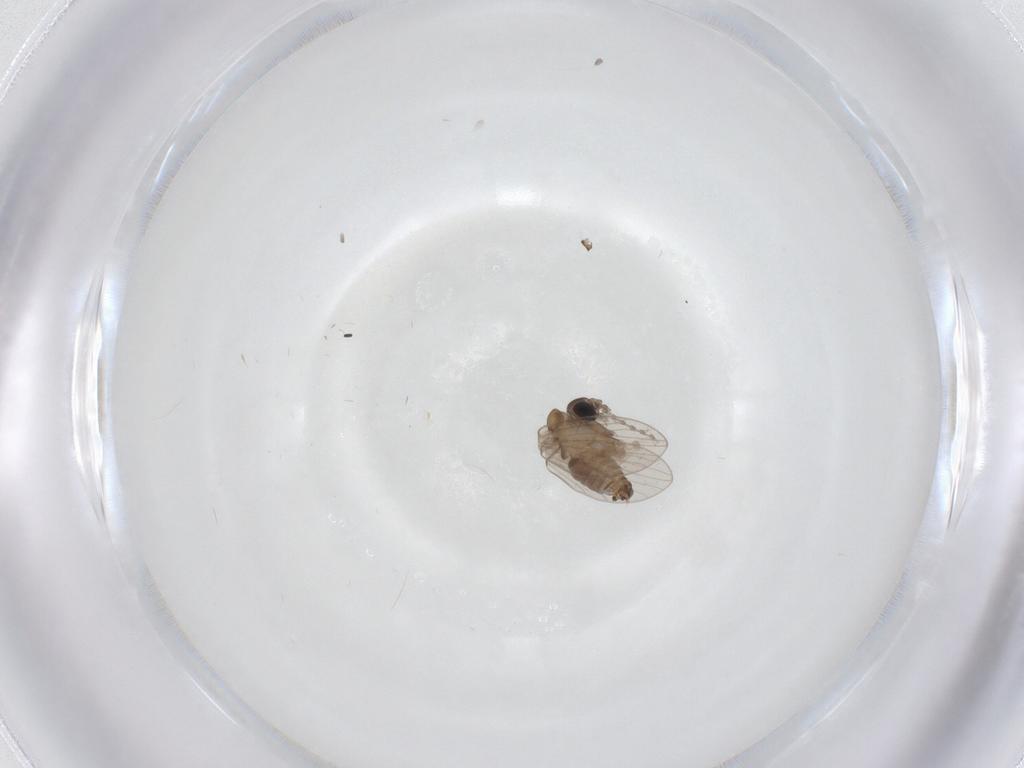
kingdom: Animalia
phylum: Arthropoda
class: Insecta
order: Diptera
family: Psychodidae
